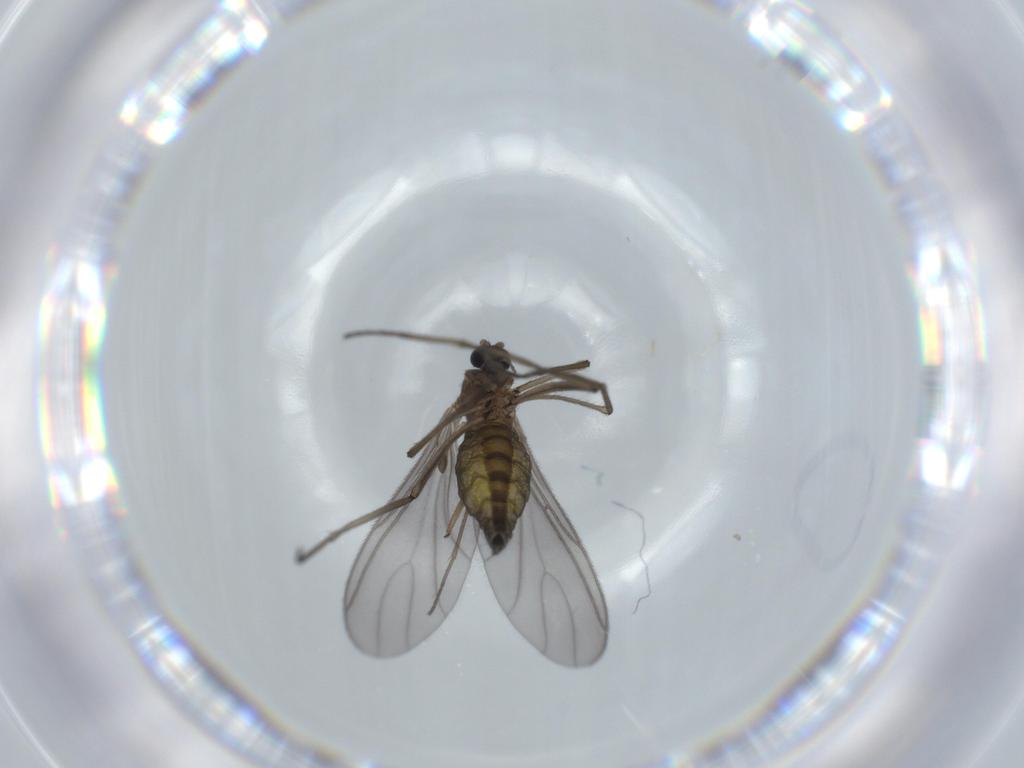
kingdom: Animalia
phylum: Arthropoda
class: Insecta
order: Diptera
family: Sciaridae
